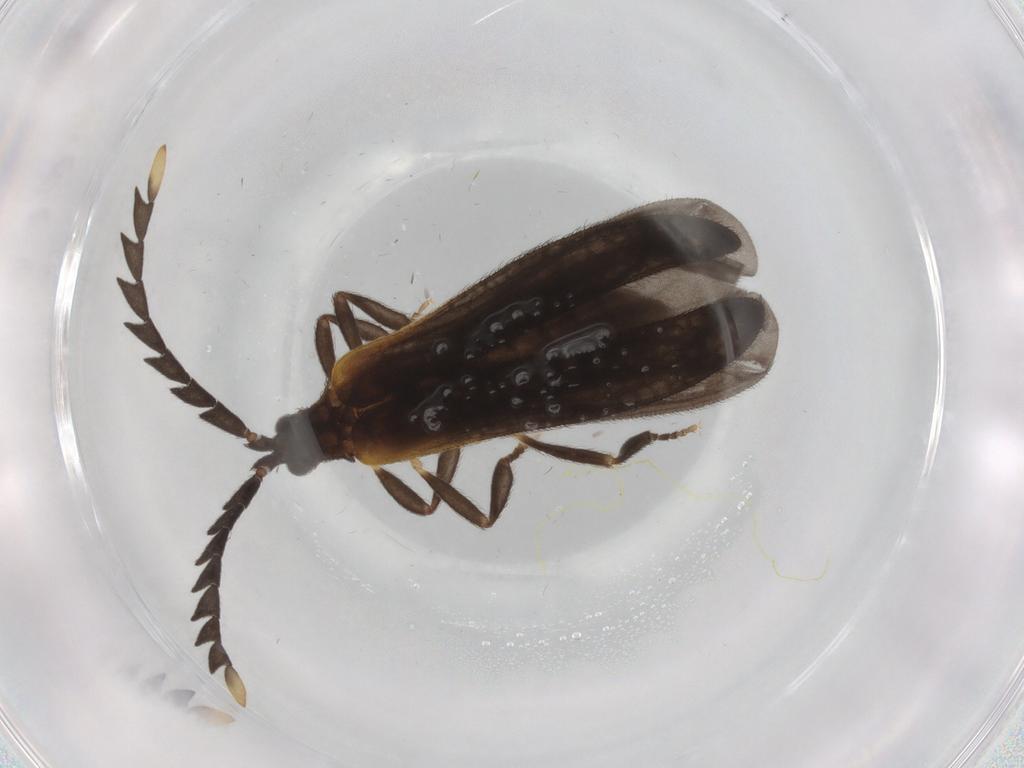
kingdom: Animalia
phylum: Arthropoda
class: Insecta
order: Coleoptera
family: Lycidae
